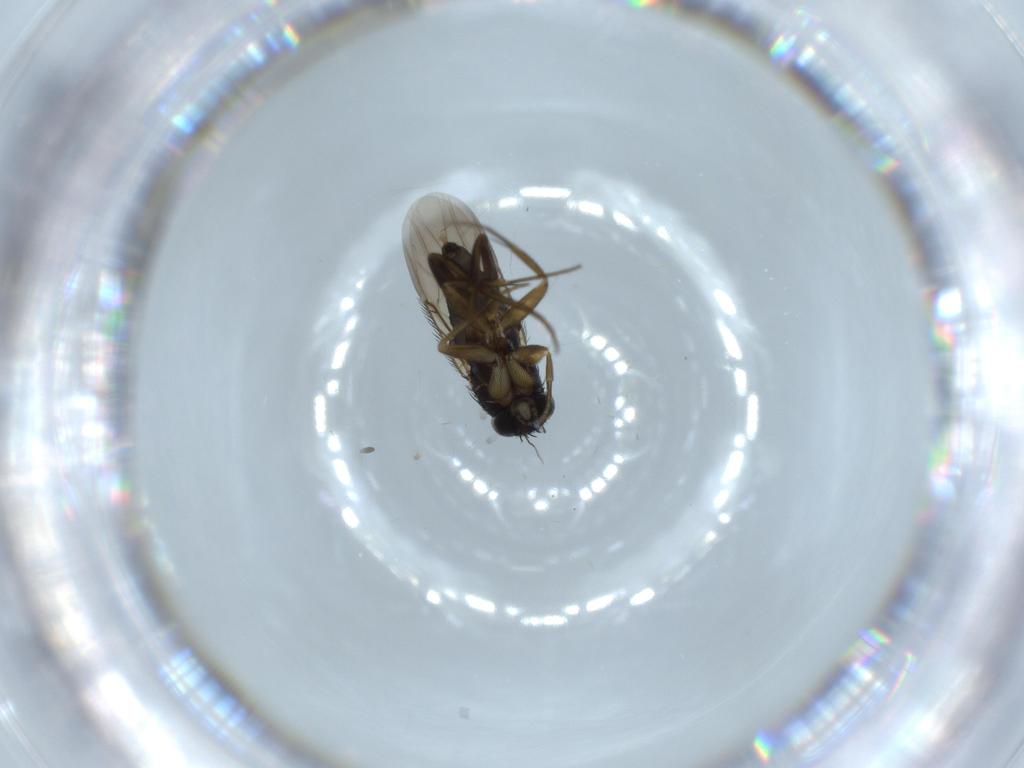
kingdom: Animalia
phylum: Arthropoda
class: Insecta
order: Diptera
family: Phoridae
